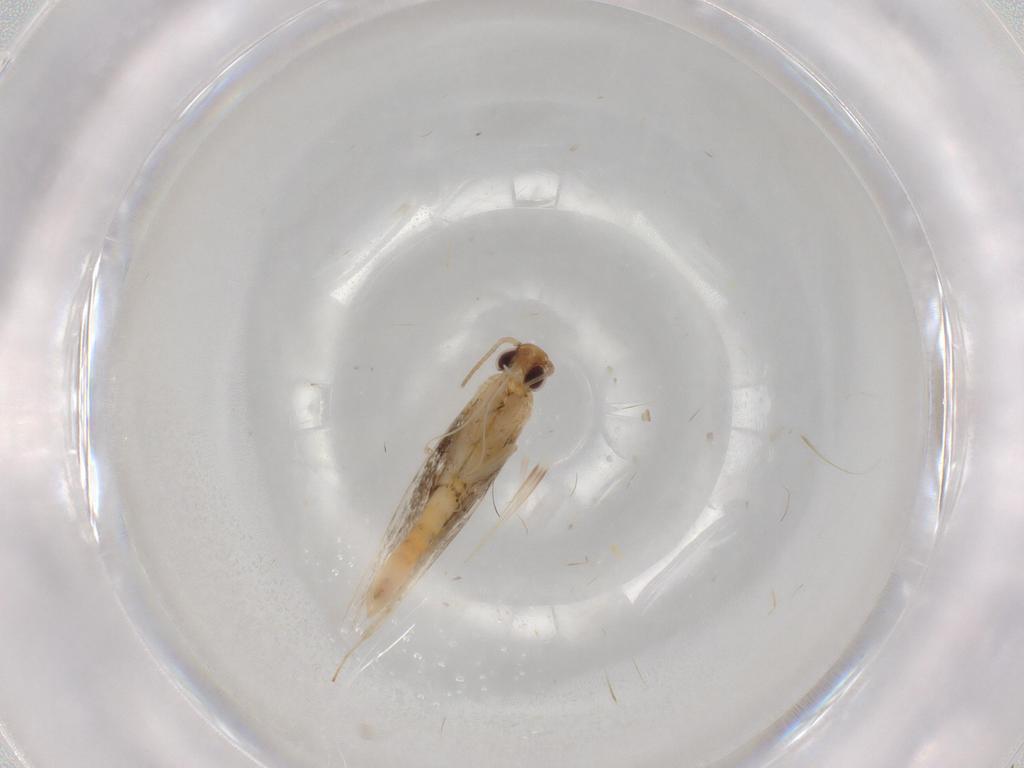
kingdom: Animalia
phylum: Arthropoda
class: Insecta
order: Lepidoptera
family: Gracillariidae
